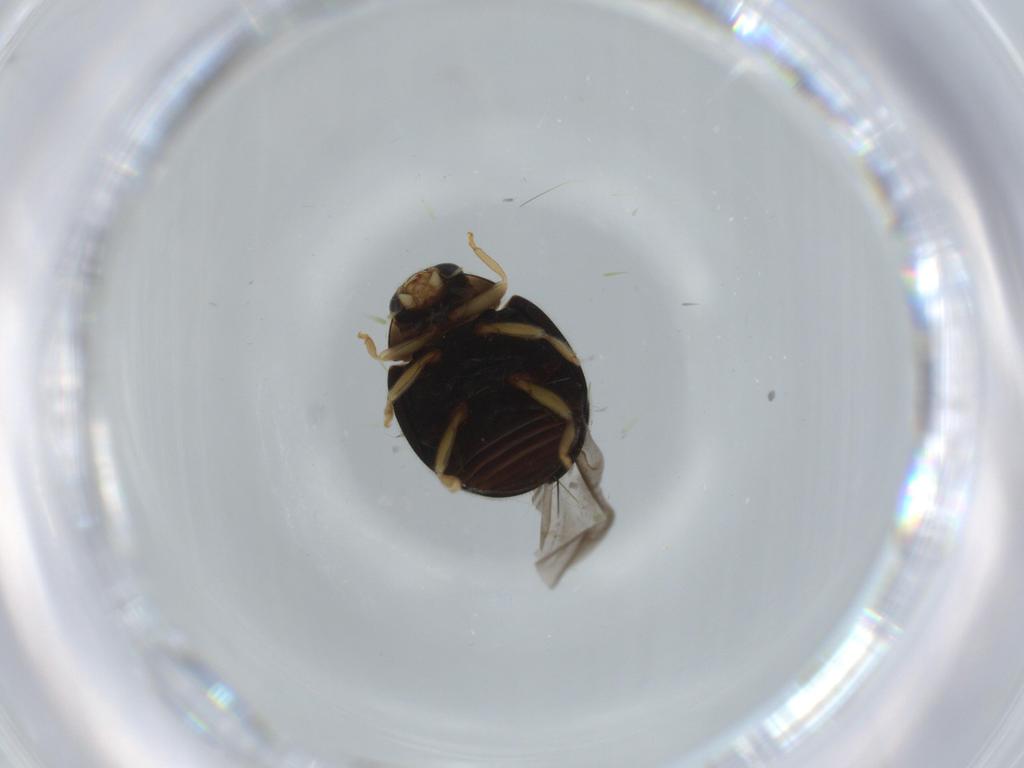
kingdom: Animalia
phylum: Arthropoda
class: Insecta
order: Coleoptera
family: Coccinellidae
